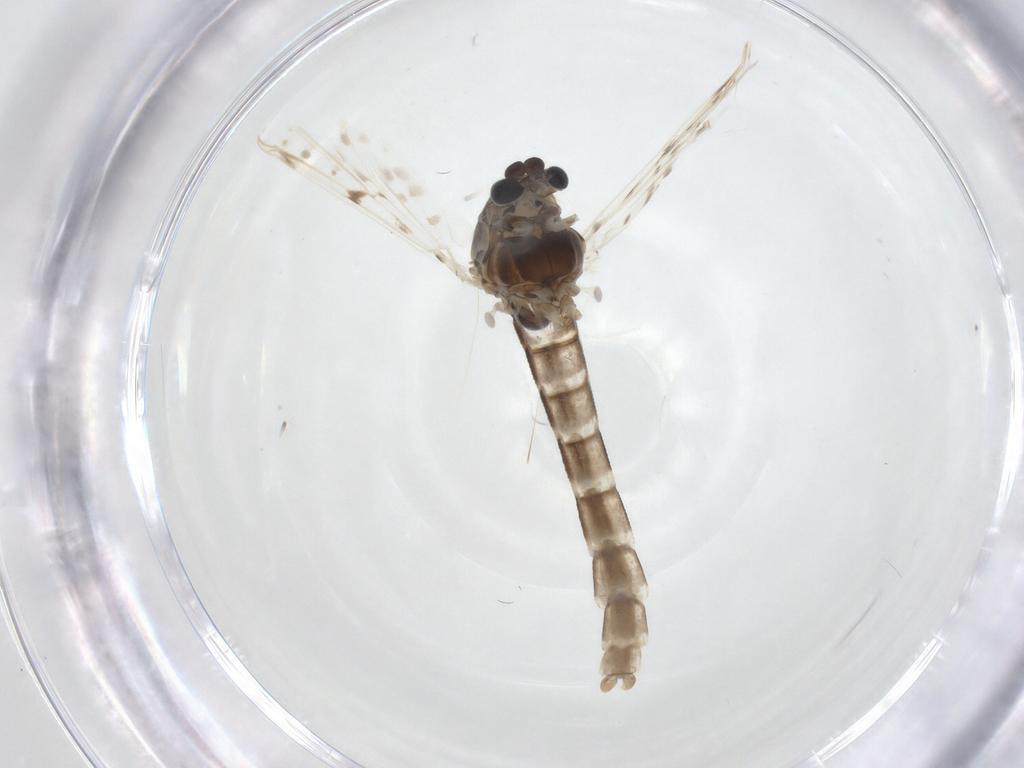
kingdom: Animalia
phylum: Arthropoda
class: Insecta
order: Diptera
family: Chironomidae
